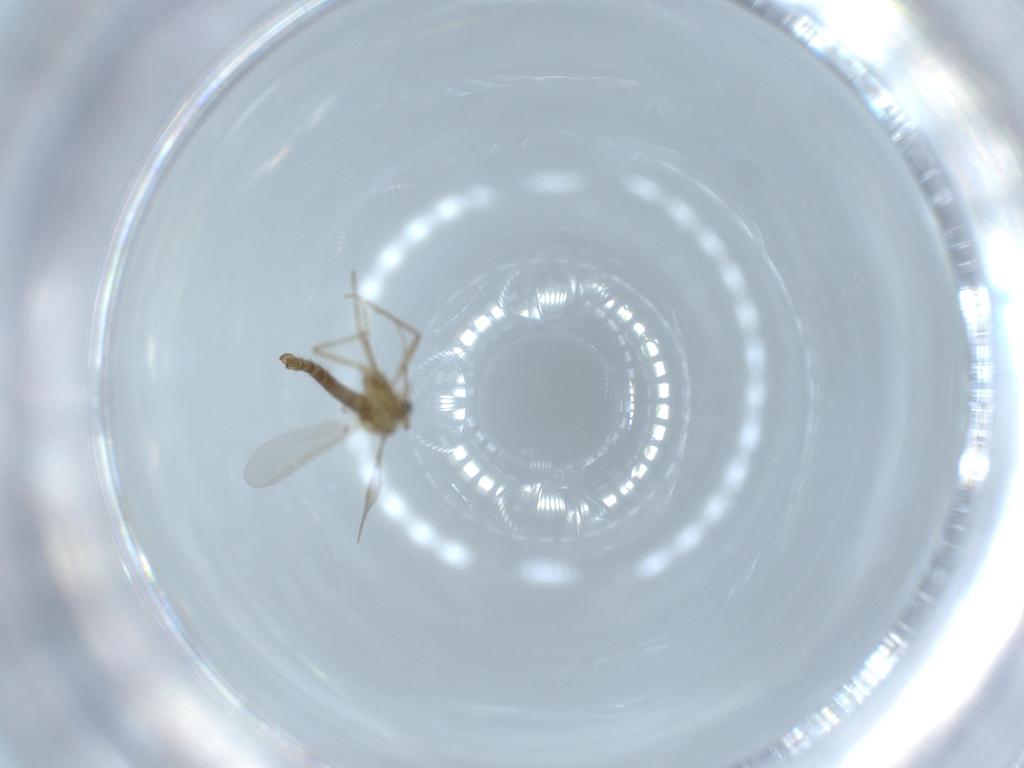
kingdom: Animalia
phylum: Arthropoda
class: Insecta
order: Diptera
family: Chironomidae
